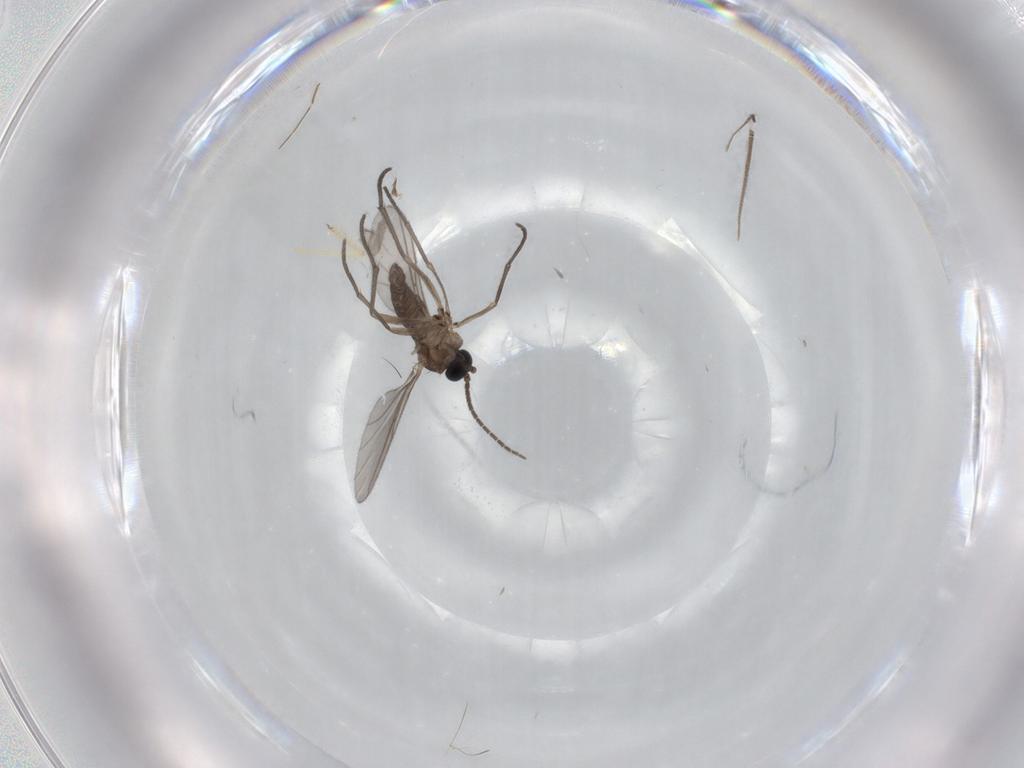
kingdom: Animalia
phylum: Arthropoda
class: Insecta
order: Diptera
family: Sciaridae
